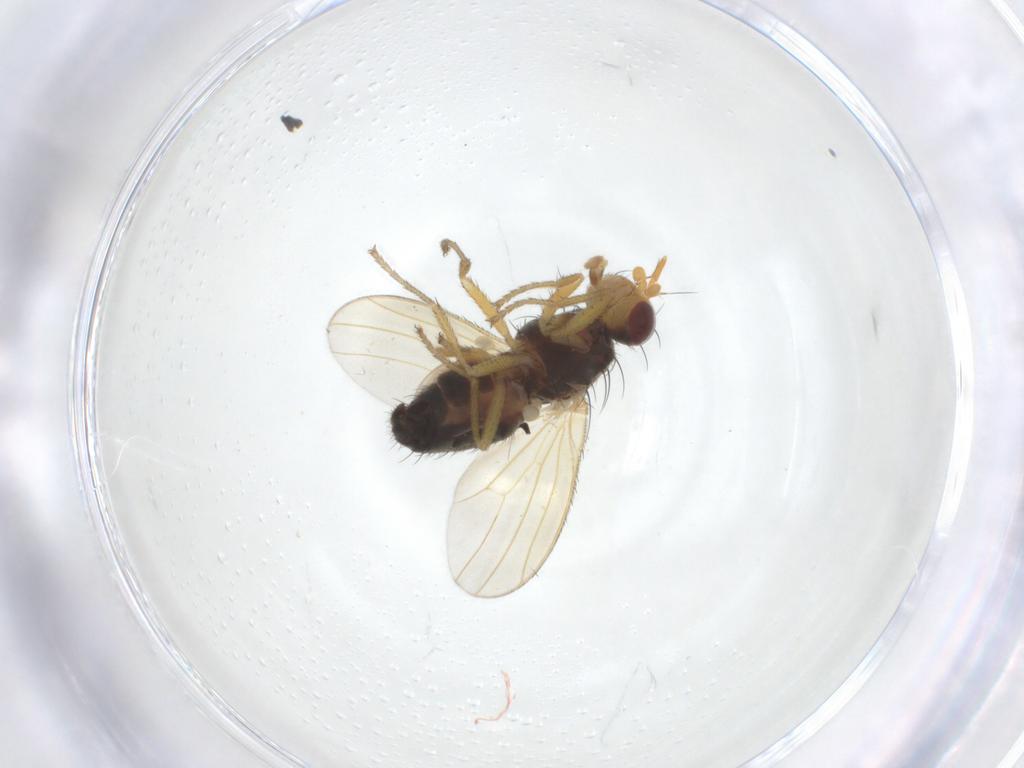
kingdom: Animalia
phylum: Arthropoda
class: Insecta
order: Diptera
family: Heleomyzidae
